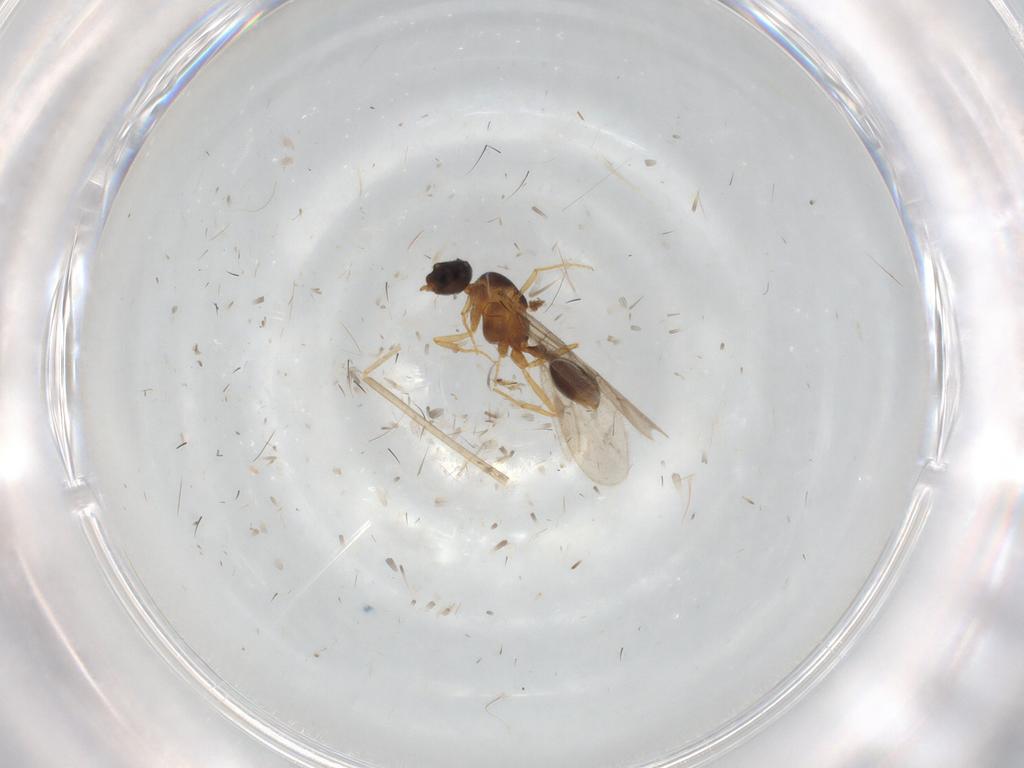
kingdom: Animalia
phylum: Arthropoda
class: Insecta
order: Hymenoptera
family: Formicidae
